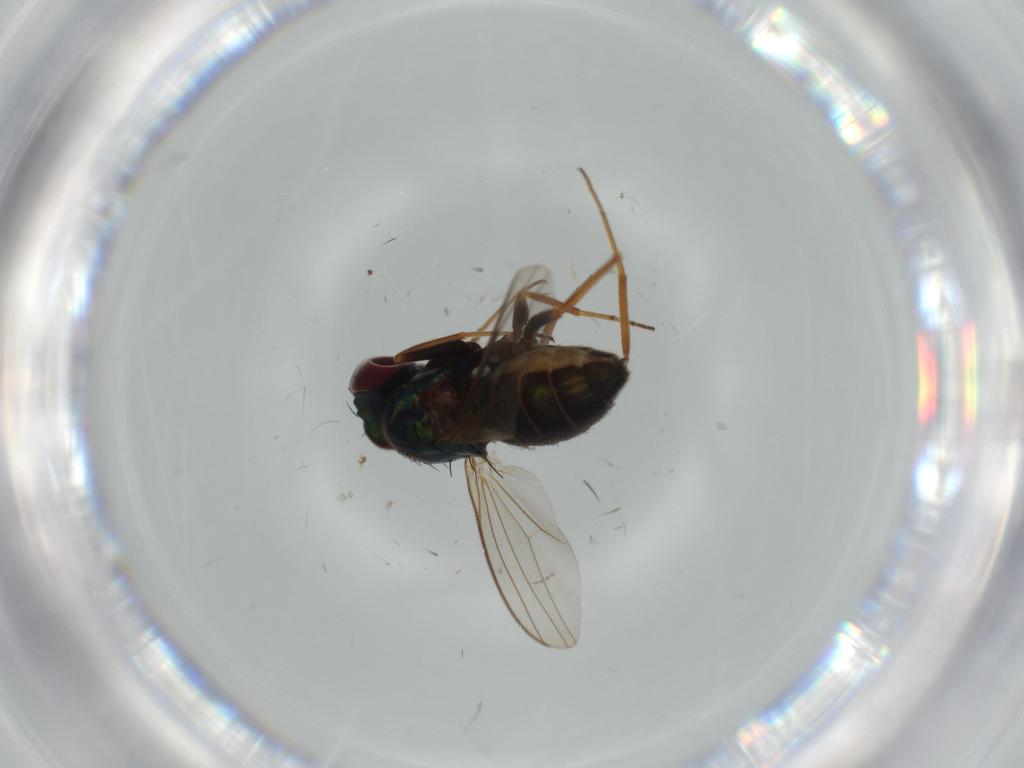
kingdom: Animalia
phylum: Arthropoda
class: Insecta
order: Diptera
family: Dolichopodidae
